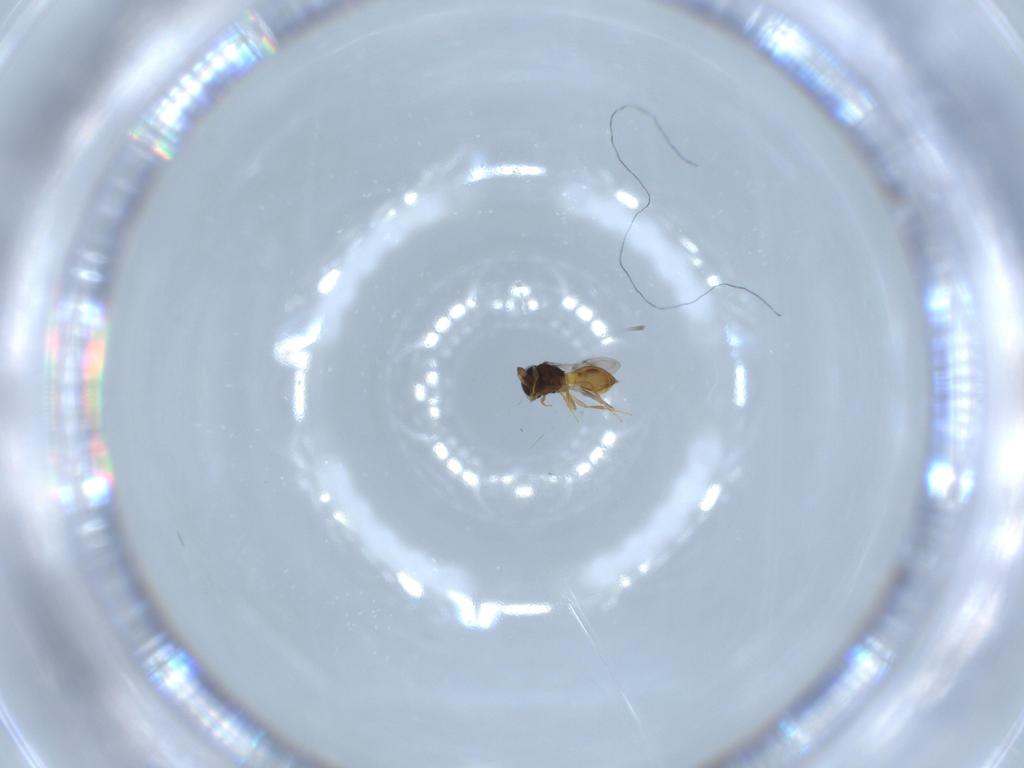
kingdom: Animalia
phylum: Arthropoda
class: Insecta
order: Hymenoptera
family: Scelionidae
